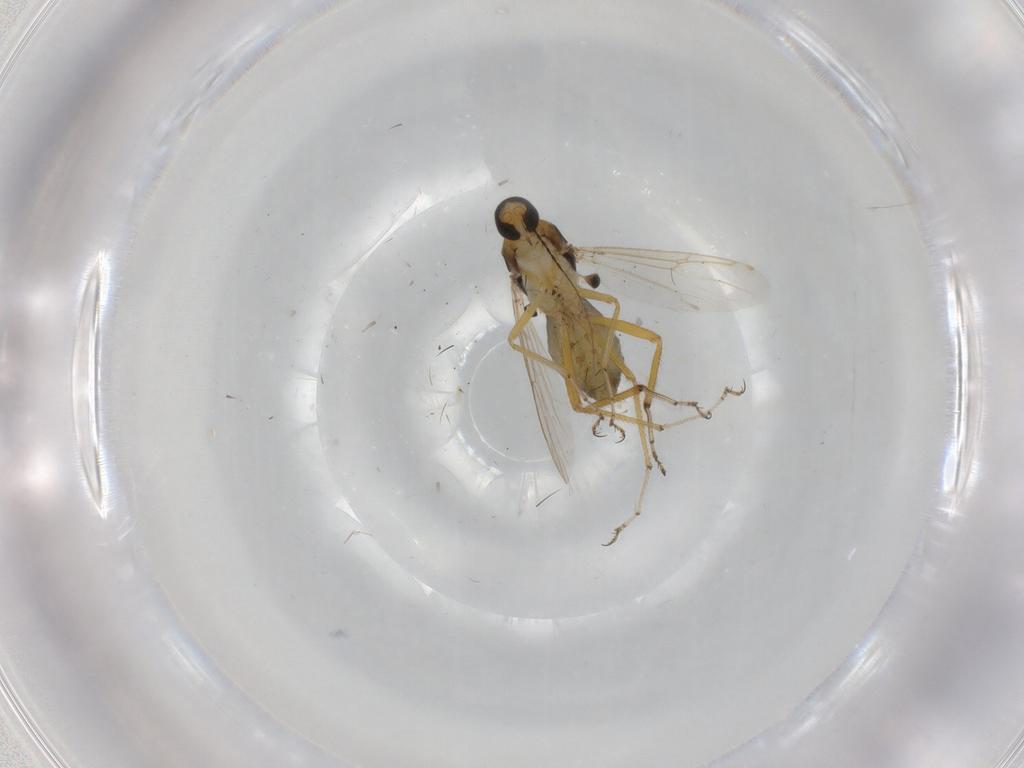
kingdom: Animalia
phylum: Arthropoda
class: Insecta
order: Diptera
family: Ceratopogonidae
